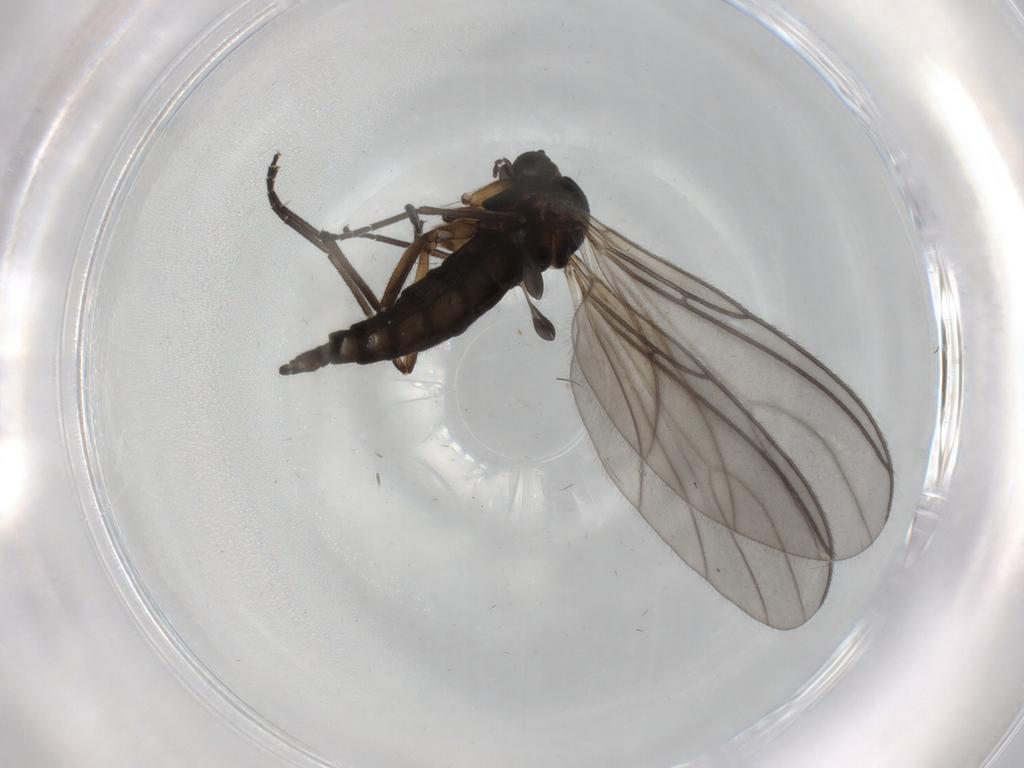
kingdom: Animalia
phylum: Arthropoda
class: Insecta
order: Diptera
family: Sciaridae
